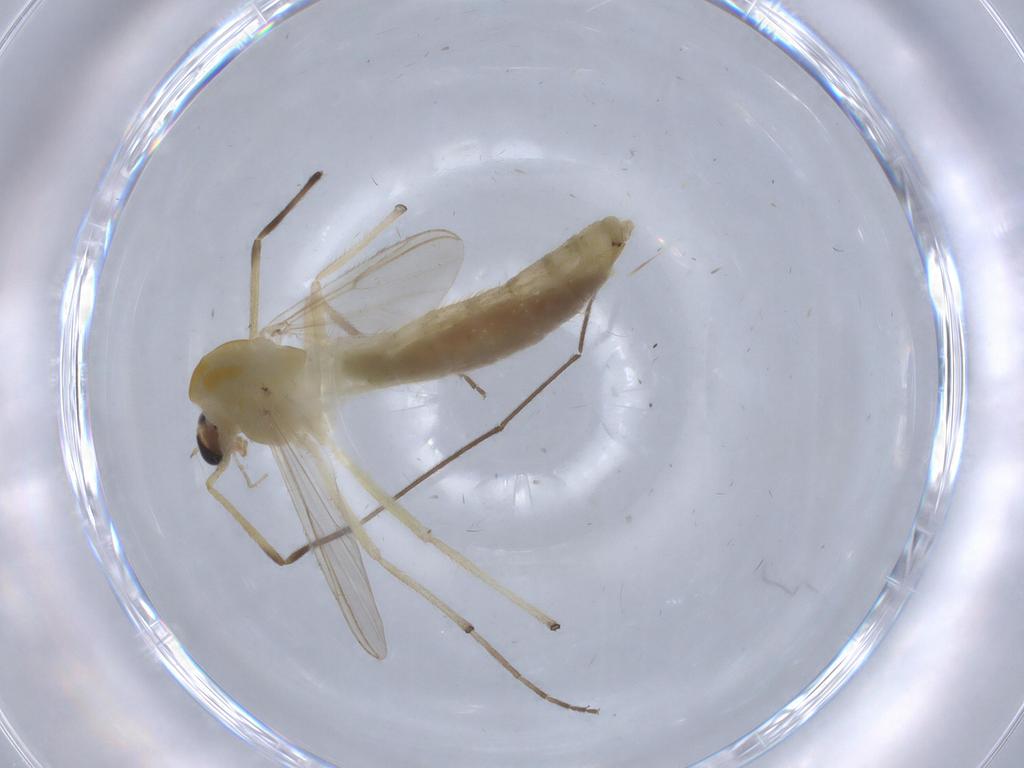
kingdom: Animalia
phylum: Arthropoda
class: Insecta
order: Diptera
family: Chironomidae
